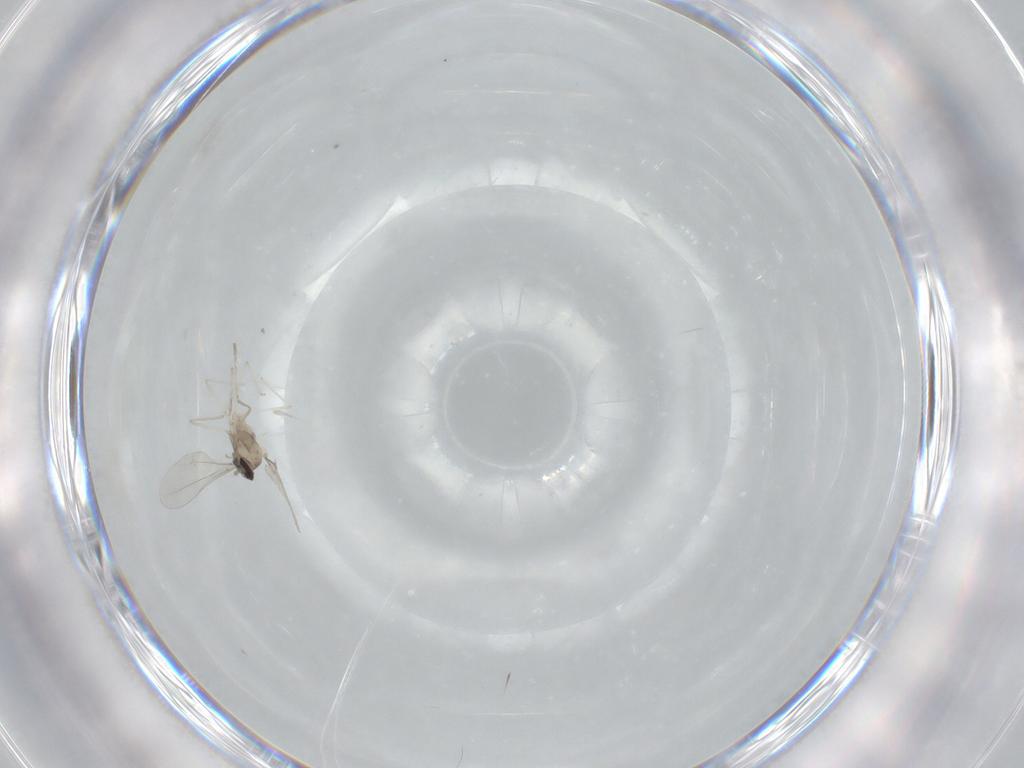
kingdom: Animalia
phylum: Arthropoda
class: Insecta
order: Diptera
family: Cecidomyiidae
